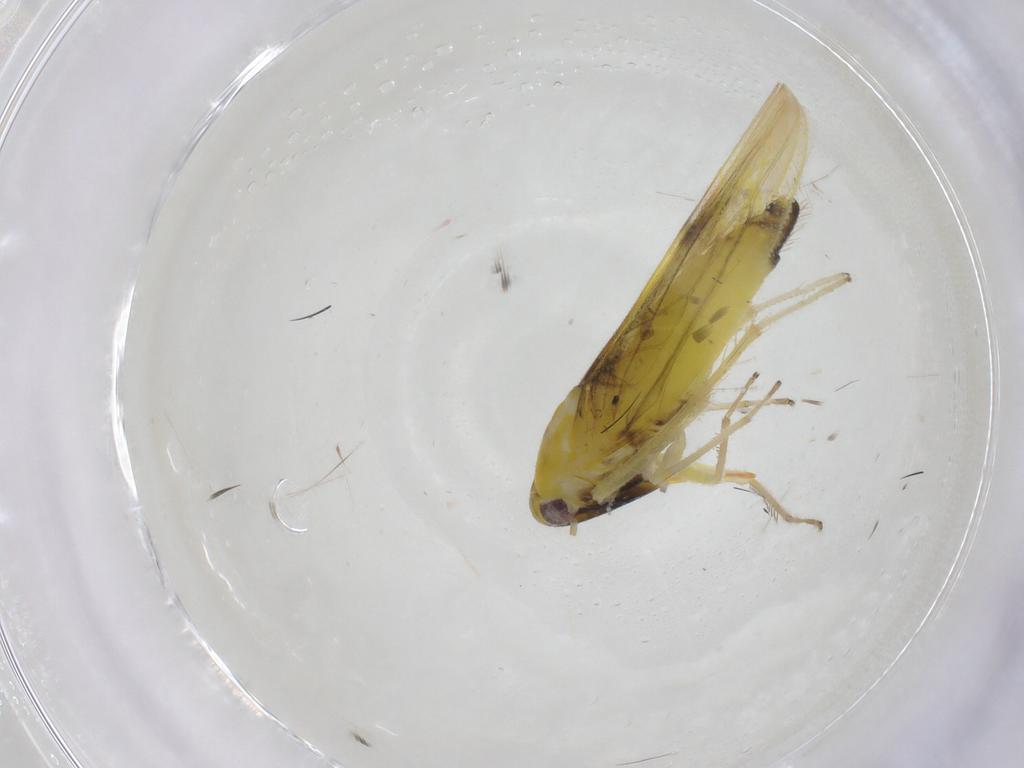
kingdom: Animalia
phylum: Arthropoda
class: Insecta
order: Hemiptera
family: Cicadellidae
